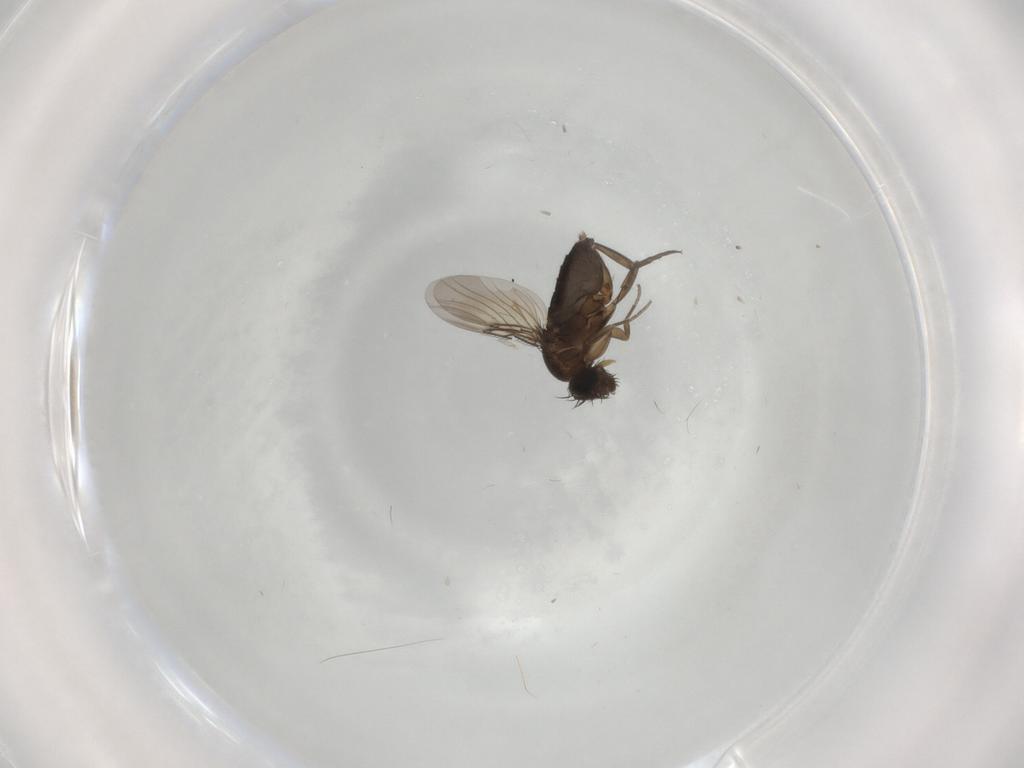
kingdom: Animalia
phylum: Arthropoda
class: Insecta
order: Diptera
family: Phoridae
